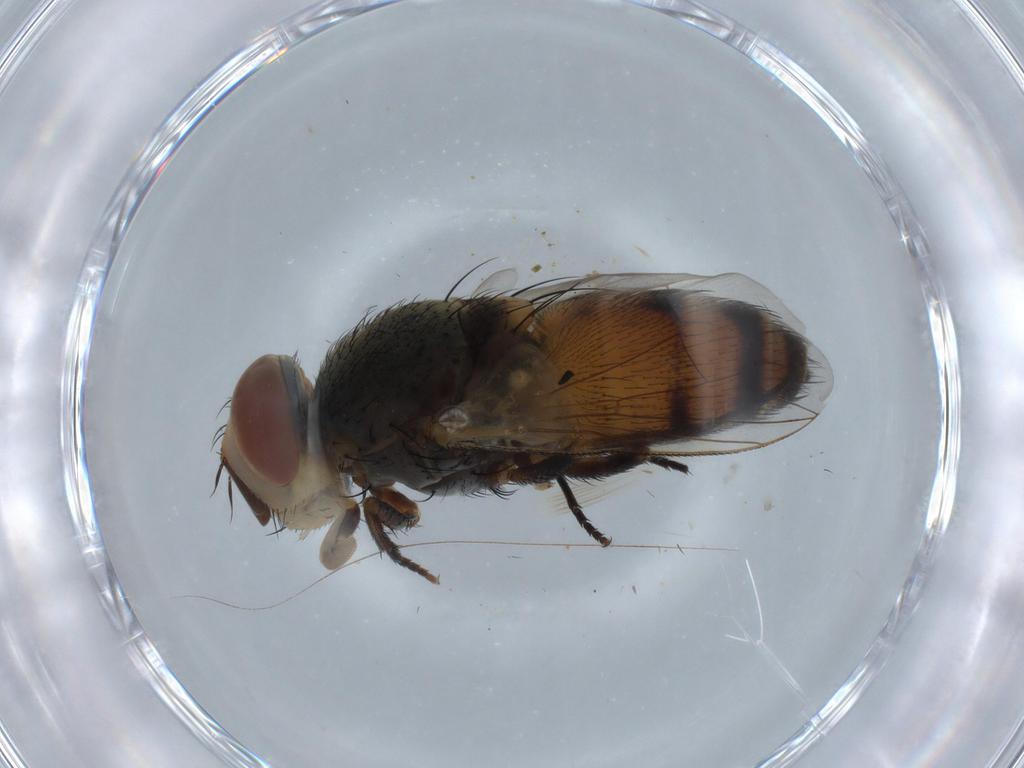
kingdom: Animalia
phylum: Arthropoda
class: Insecta
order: Diptera
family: Muscidae
